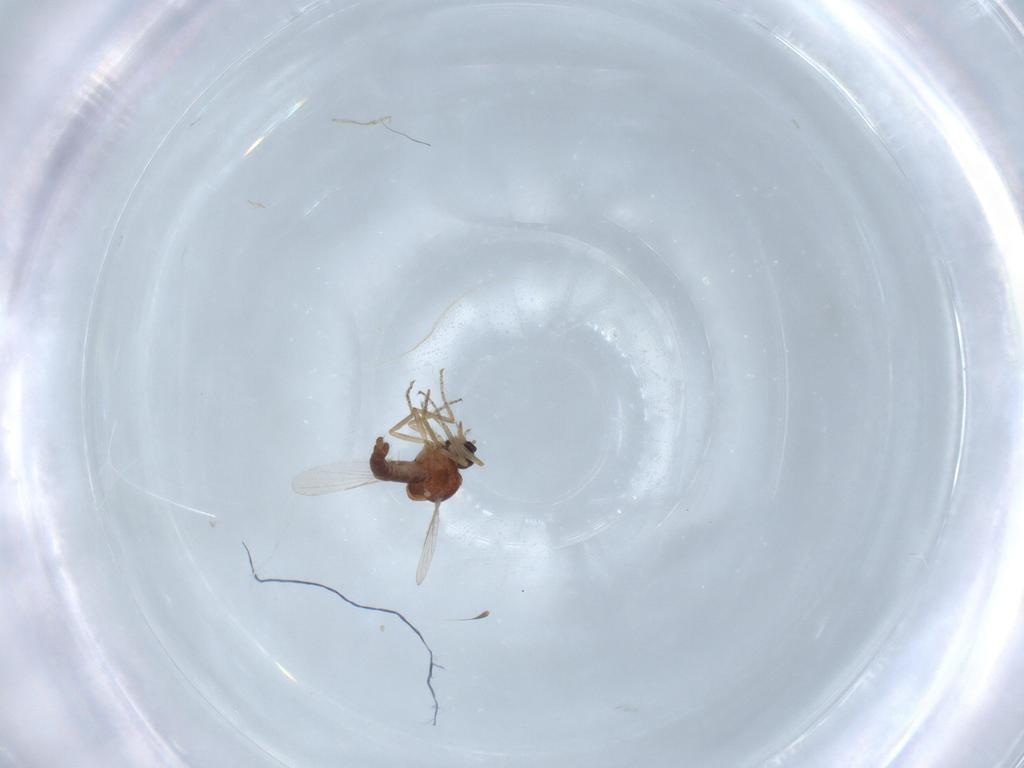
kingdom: Animalia
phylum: Arthropoda
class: Insecta
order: Diptera
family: Ceratopogonidae
